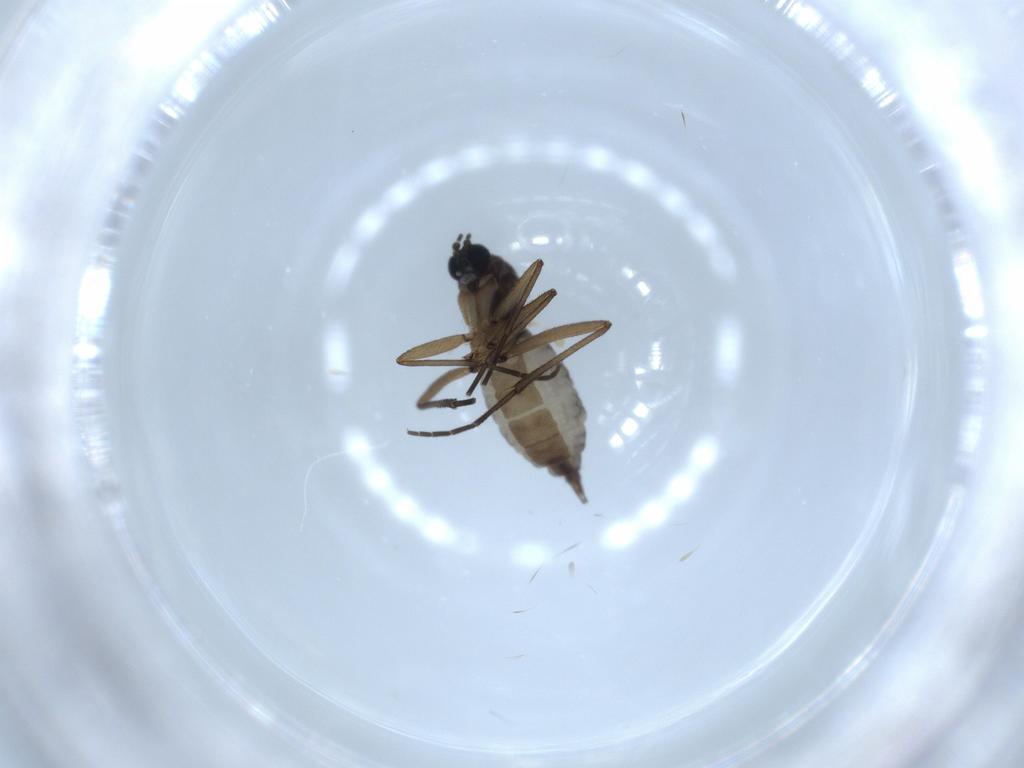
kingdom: Animalia
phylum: Arthropoda
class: Insecta
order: Diptera
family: Sciaridae
